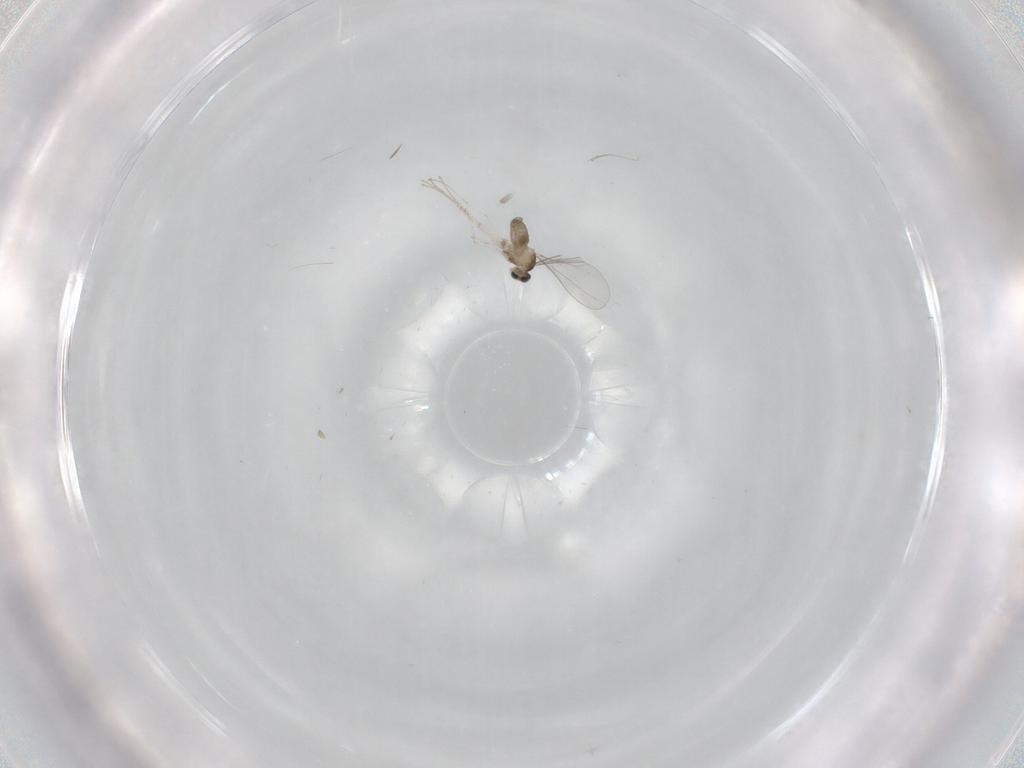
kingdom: Animalia
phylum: Arthropoda
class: Insecta
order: Diptera
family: Cecidomyiidae
